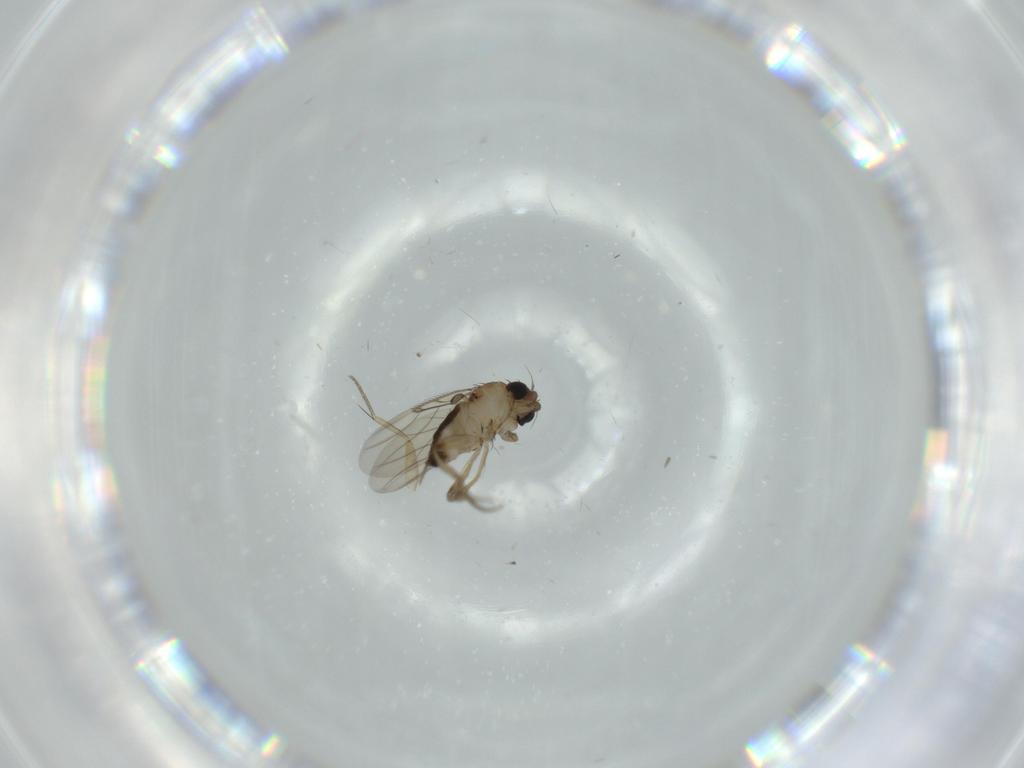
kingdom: Animalia
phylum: Arthropoda
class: Insecta
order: Diptera
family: Phoridae
